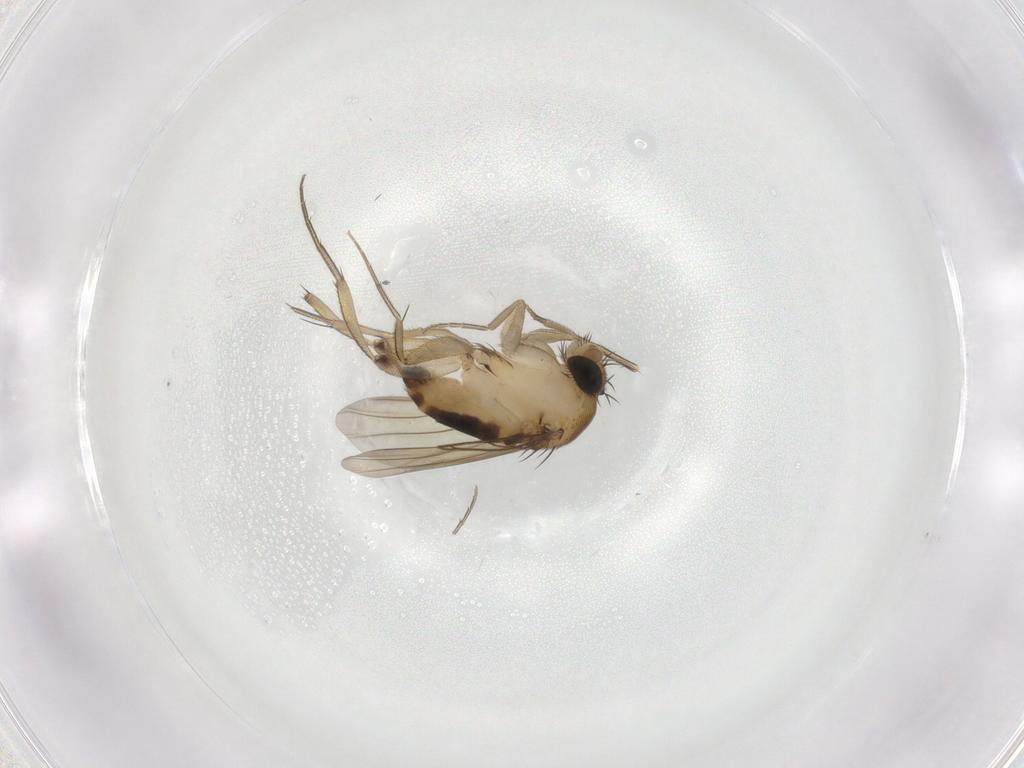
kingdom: Animalia
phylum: Arthropoda
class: Insecta
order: Diptera
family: Phoridae
